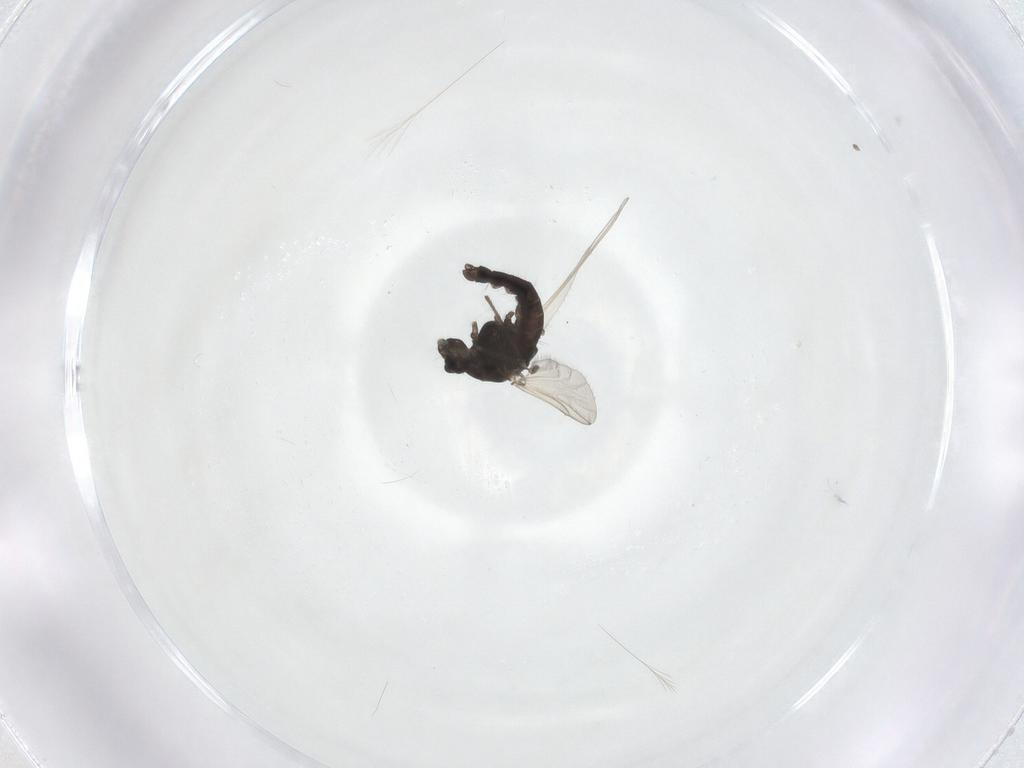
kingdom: Animalia
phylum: Arthropoda
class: Insecta
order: Diptera
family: Chironomidae
